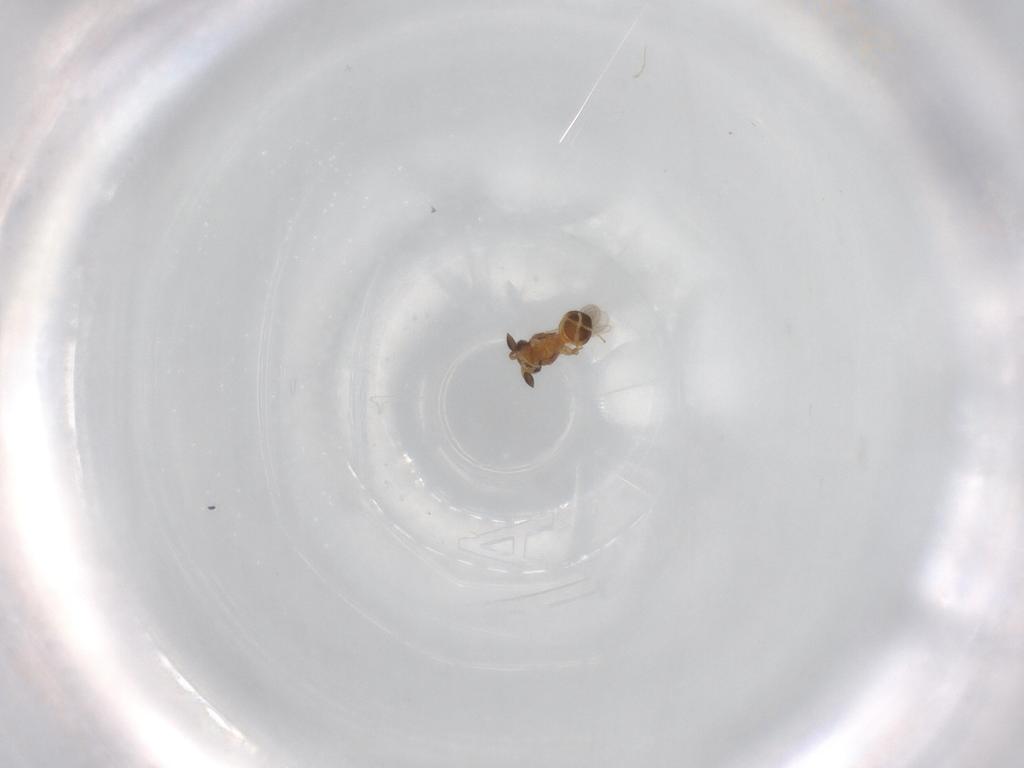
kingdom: Animalia
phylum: Arthropoda
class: Insecta
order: Hymenoptera
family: Scelionidae
